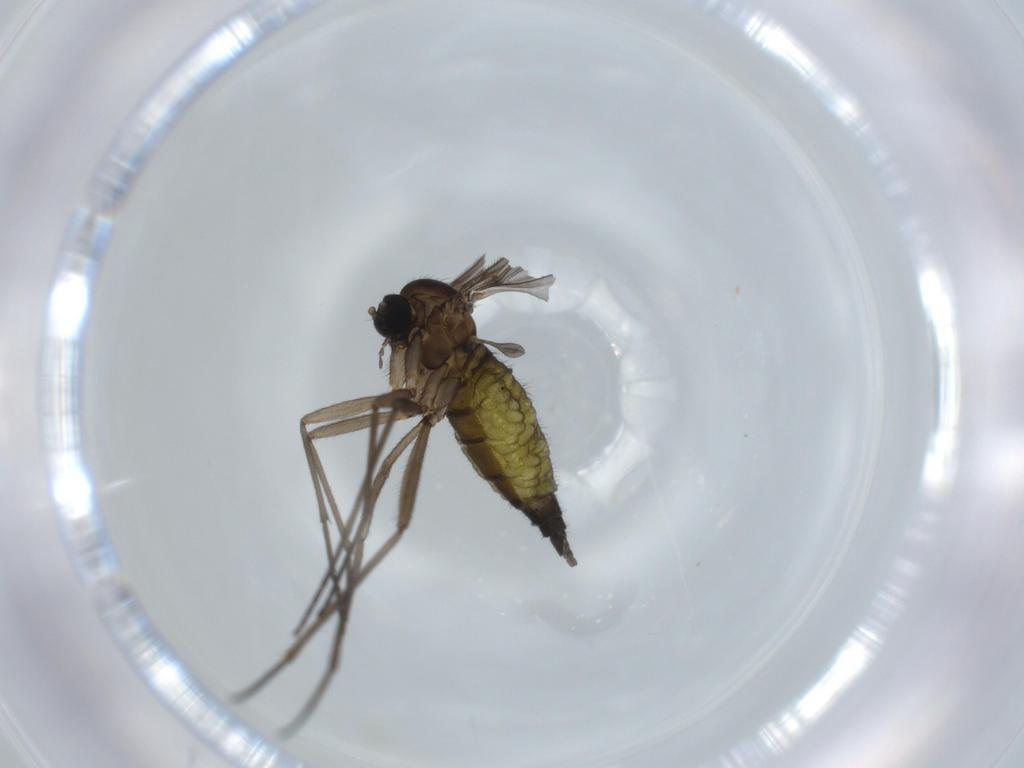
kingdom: Animalia
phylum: Arthropoda
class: Insecta
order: Diptera
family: Sciaridae
